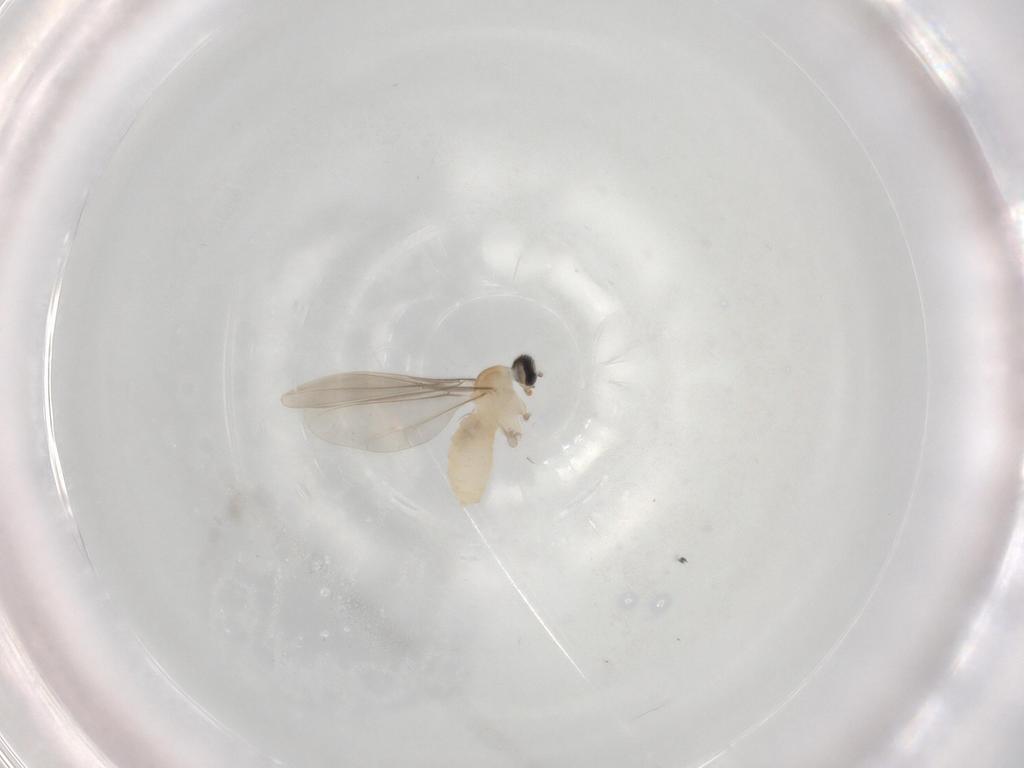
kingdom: Animalia
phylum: Arthropoda
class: Insecta
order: Diptera
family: Cecidomyiidae
